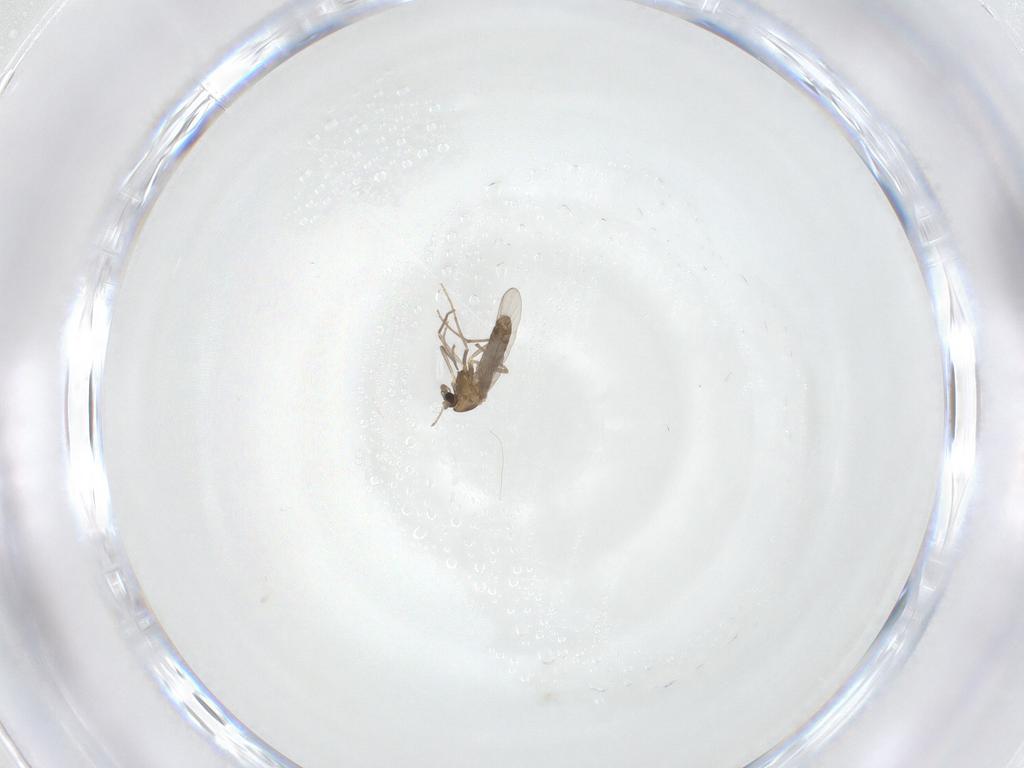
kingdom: Animalia
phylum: Arthropoda
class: Insecta
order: Diptera
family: Chironomidae
